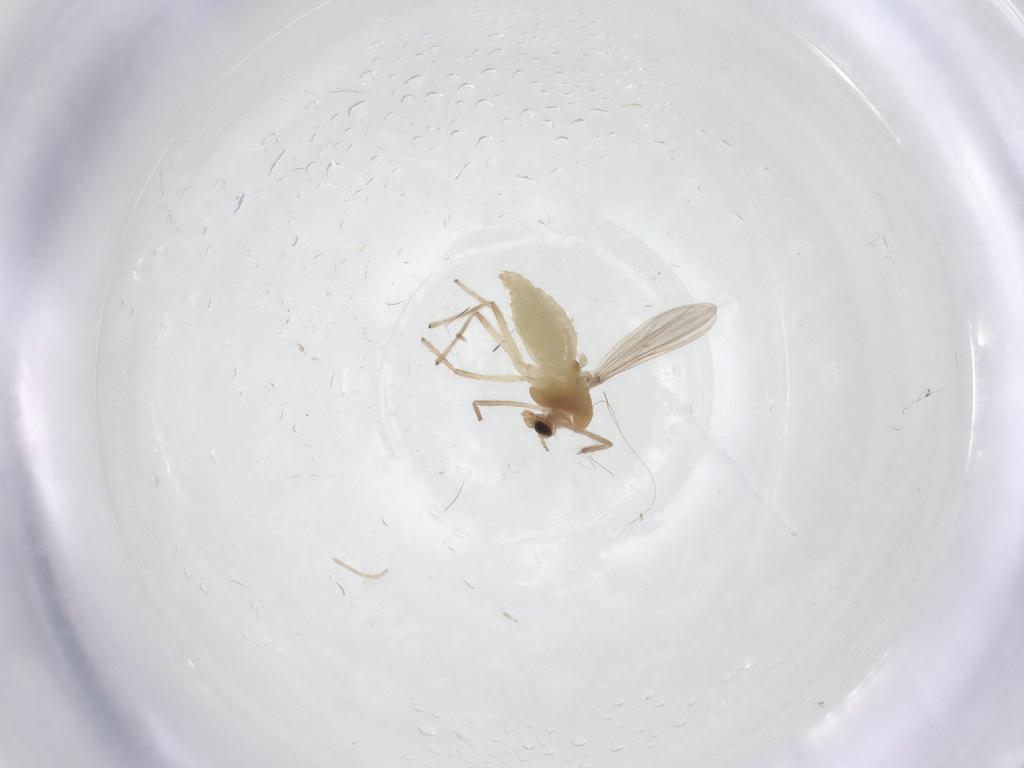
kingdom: Animalia
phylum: Arthropoda
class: Insecta
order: Diptera
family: Chironomidae
